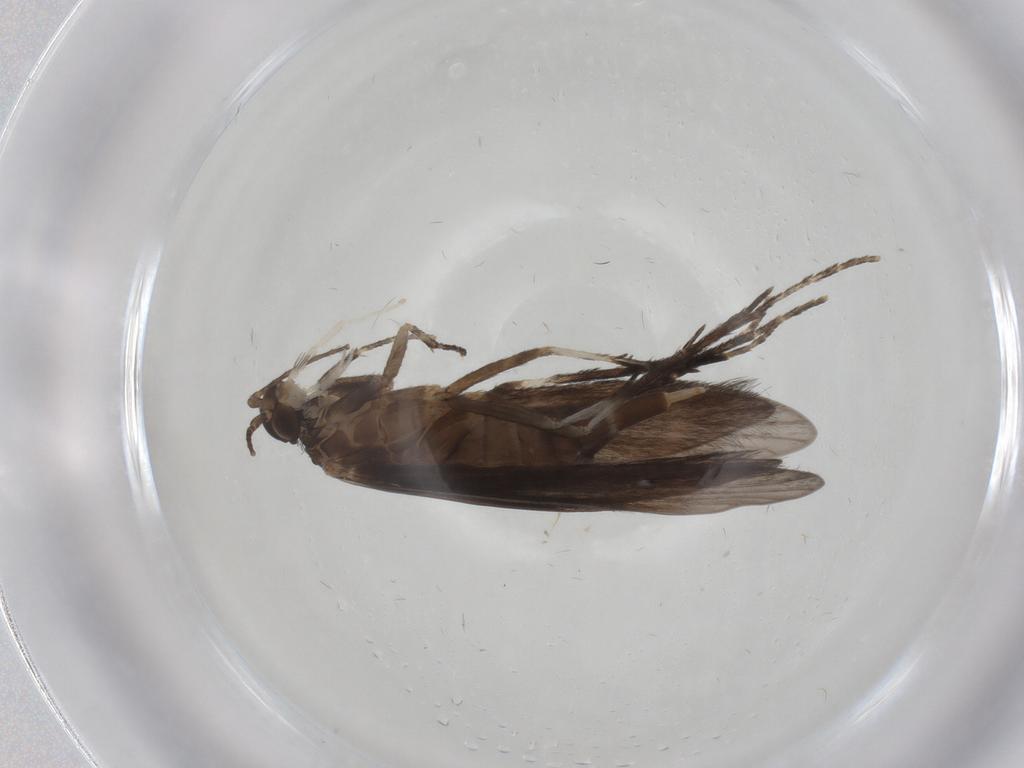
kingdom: Animalia
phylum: Arthropoda
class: Insecta
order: Trichoptera
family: Xiphocentronidae
